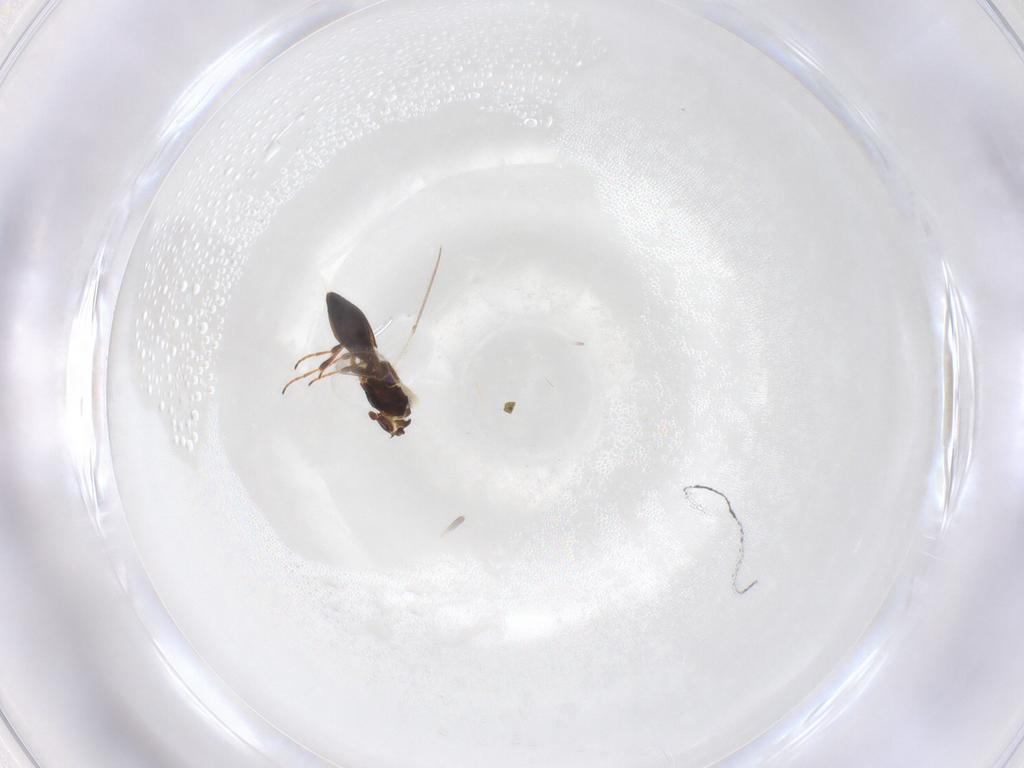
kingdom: Animalia
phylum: Arthropoda
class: Insecta
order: Hymenoptera
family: Platygastridae
